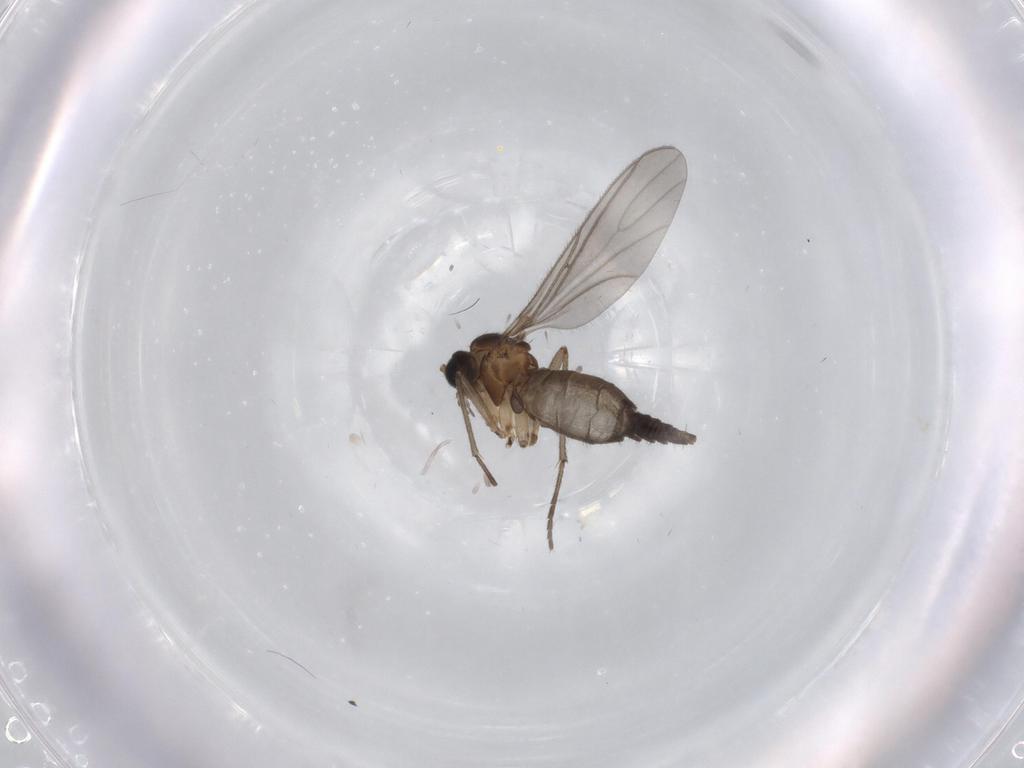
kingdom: Animalia
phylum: Arthropoda
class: Insecta
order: Diptera
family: Sciaridae
